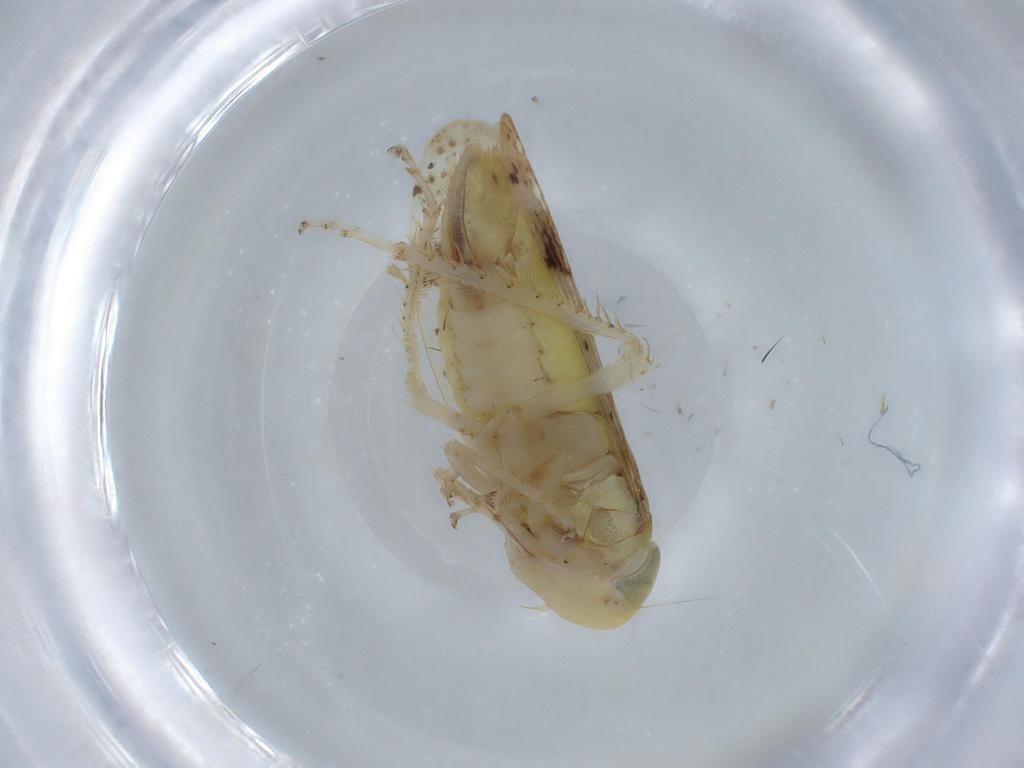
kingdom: Animalia
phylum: Arthropoda
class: Insecta
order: Hemiptera
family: Cicadellidae
